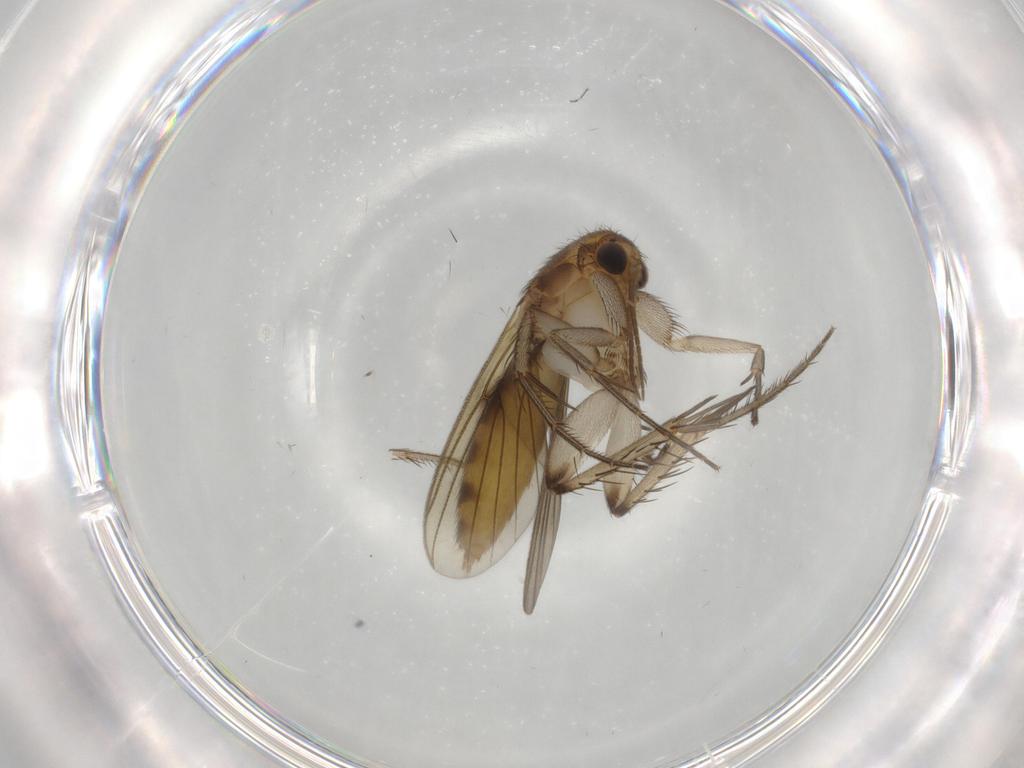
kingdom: Animalia
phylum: Arthropoda
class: Insecta
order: Diptera
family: Mycetophilidae
